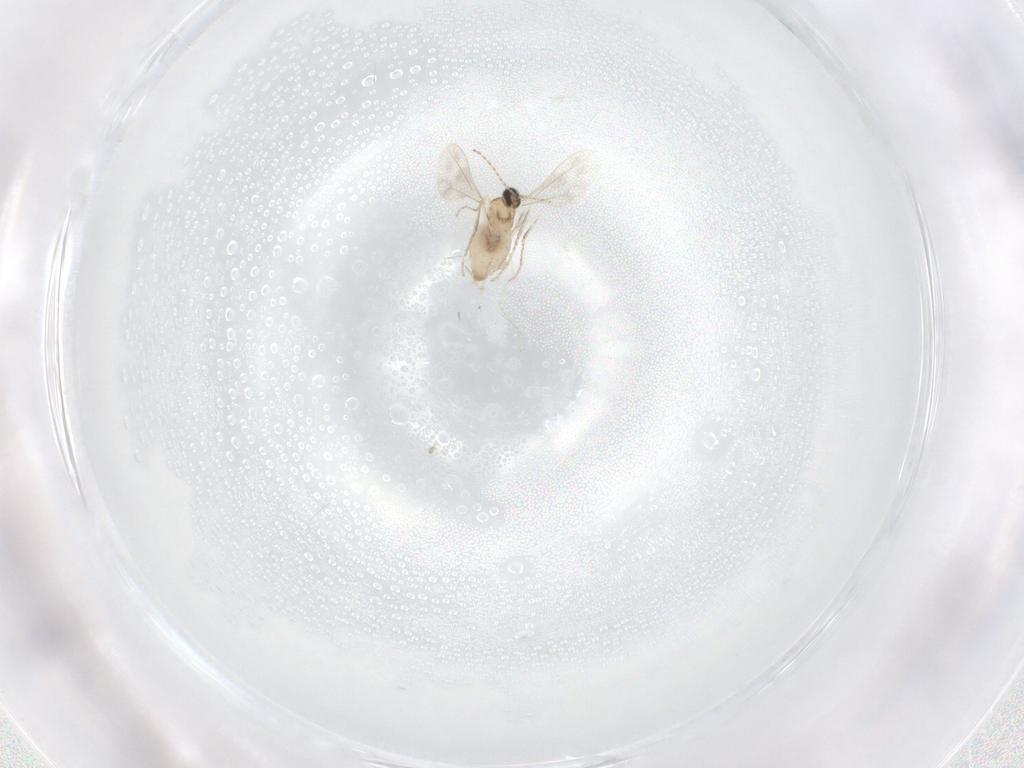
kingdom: Animalia
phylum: Arthropoda
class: Insecta
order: Diptera
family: Cecidomyiidae
